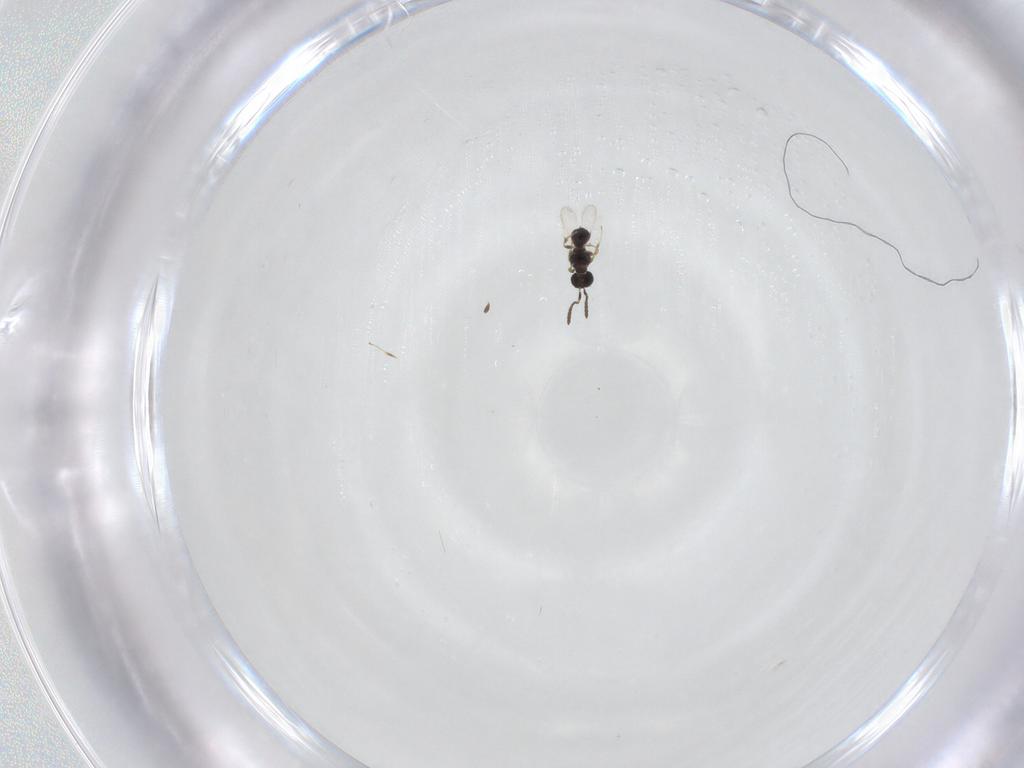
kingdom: Animalia
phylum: Arthropoda
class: Insecta
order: Hymenoptera
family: Scelionidae
